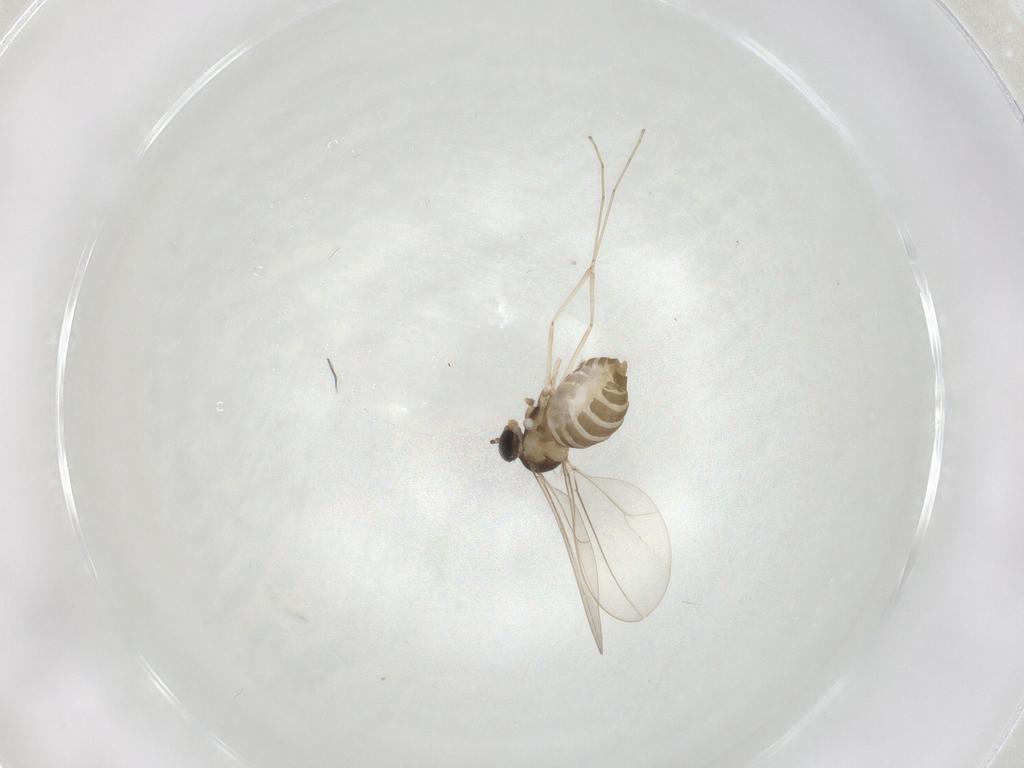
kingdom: Animalia
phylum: Arthropoda
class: Insecta
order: Diptera
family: Cecidomyiidae
